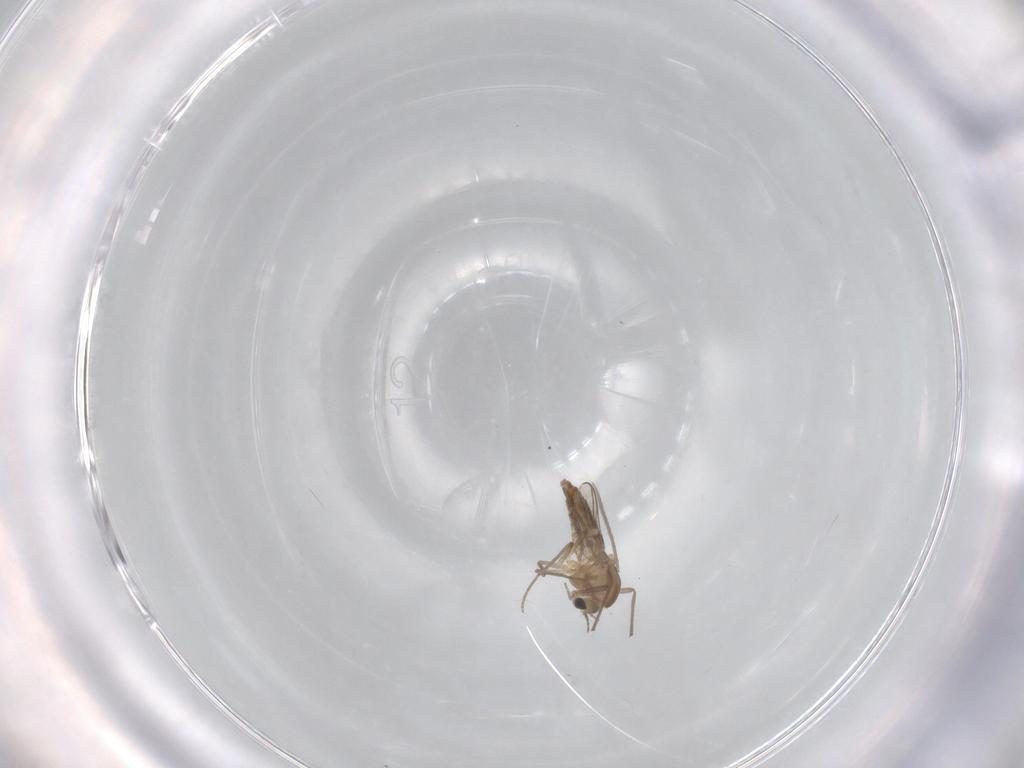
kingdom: Animalia
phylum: Arthropoda
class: Insecta
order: Diptera
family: Chironomidae
